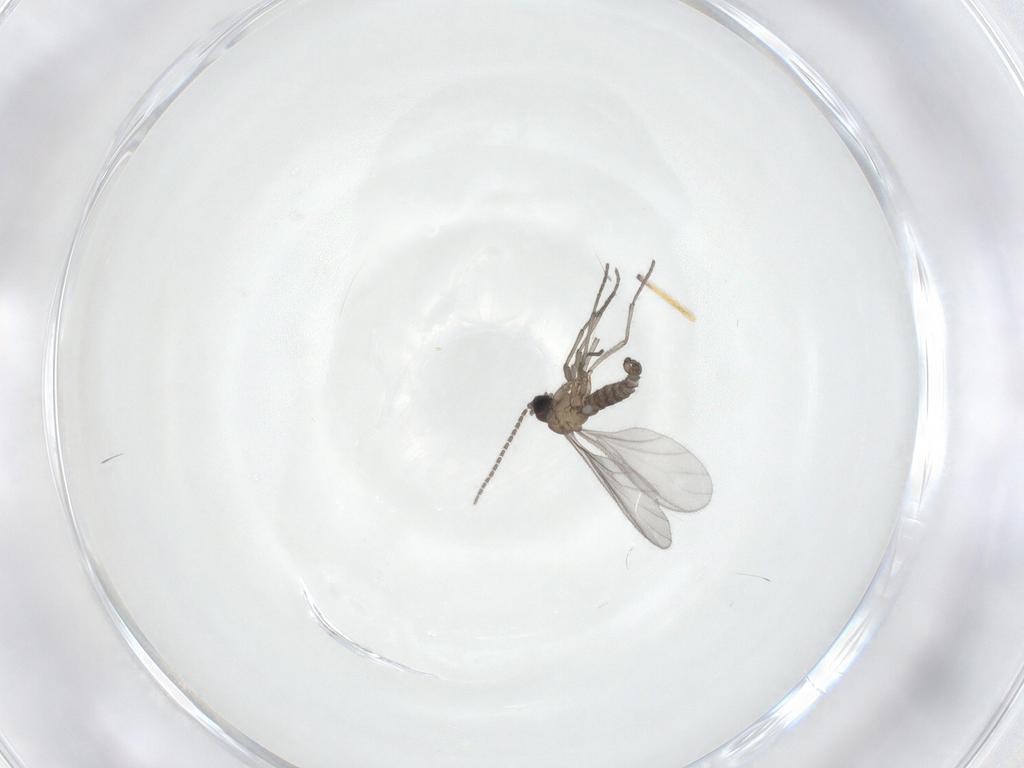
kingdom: Animalia
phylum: Arthropoda
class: Insecta
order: Diptera
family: Sciaridae
